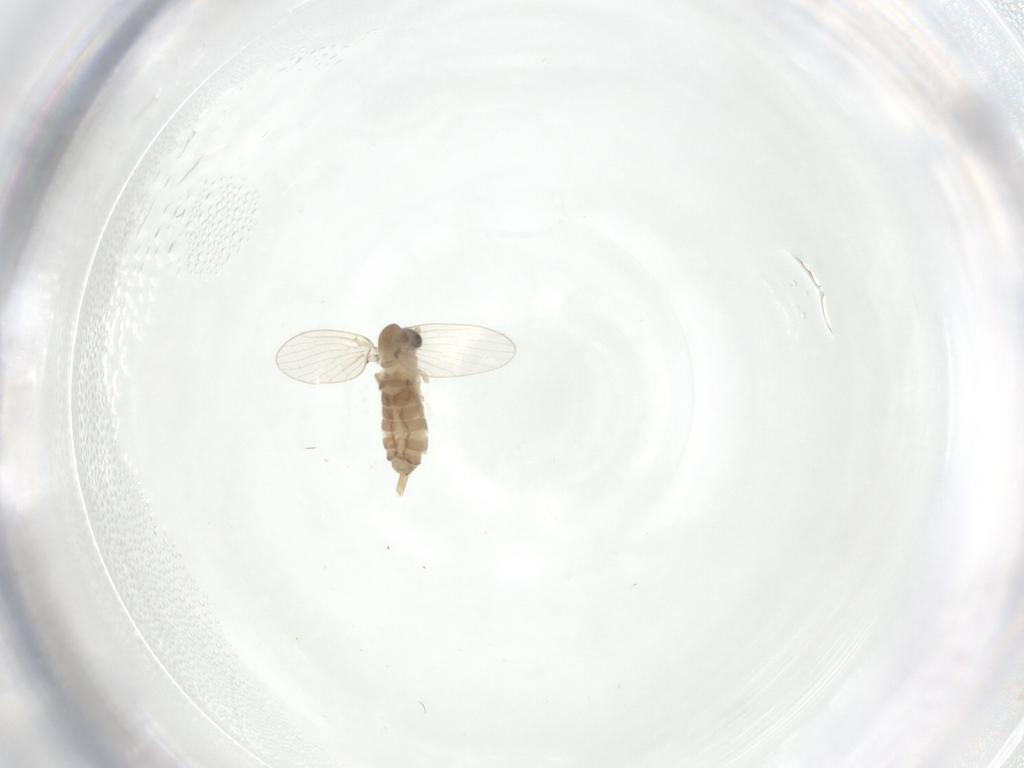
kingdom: Animalia
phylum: Arthropoda
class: Insecta
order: Diptera
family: Psychodidae
